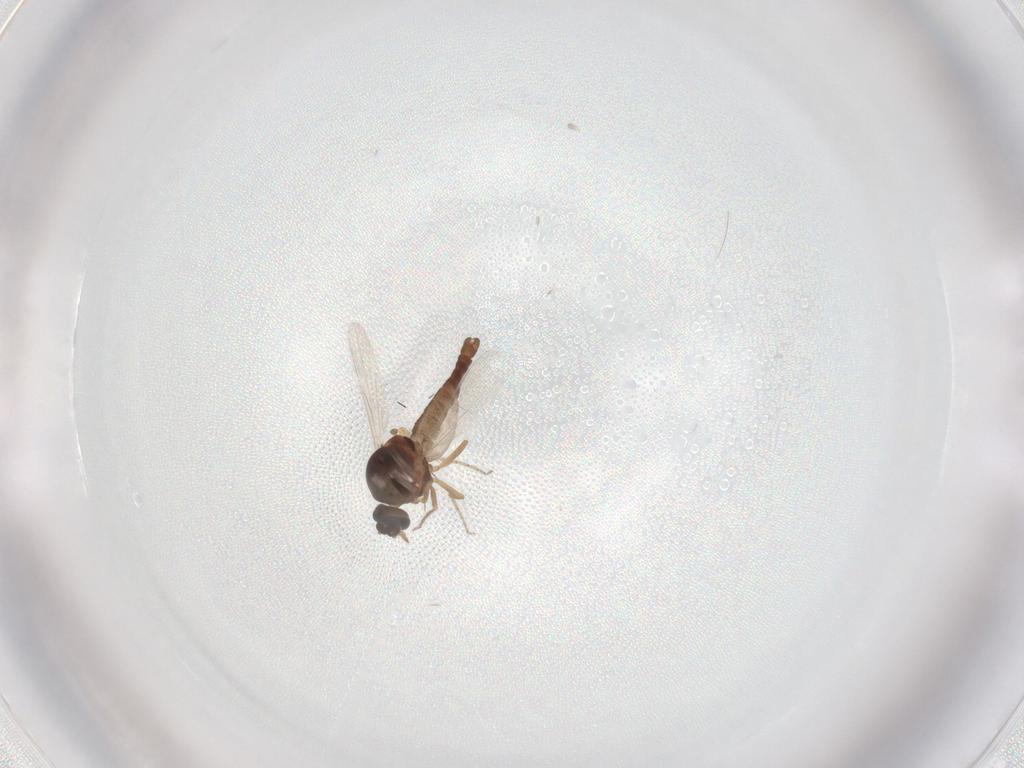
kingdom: Animalia
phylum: Arthropoda
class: Insecta
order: Diptera
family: Ceratopogonidae
